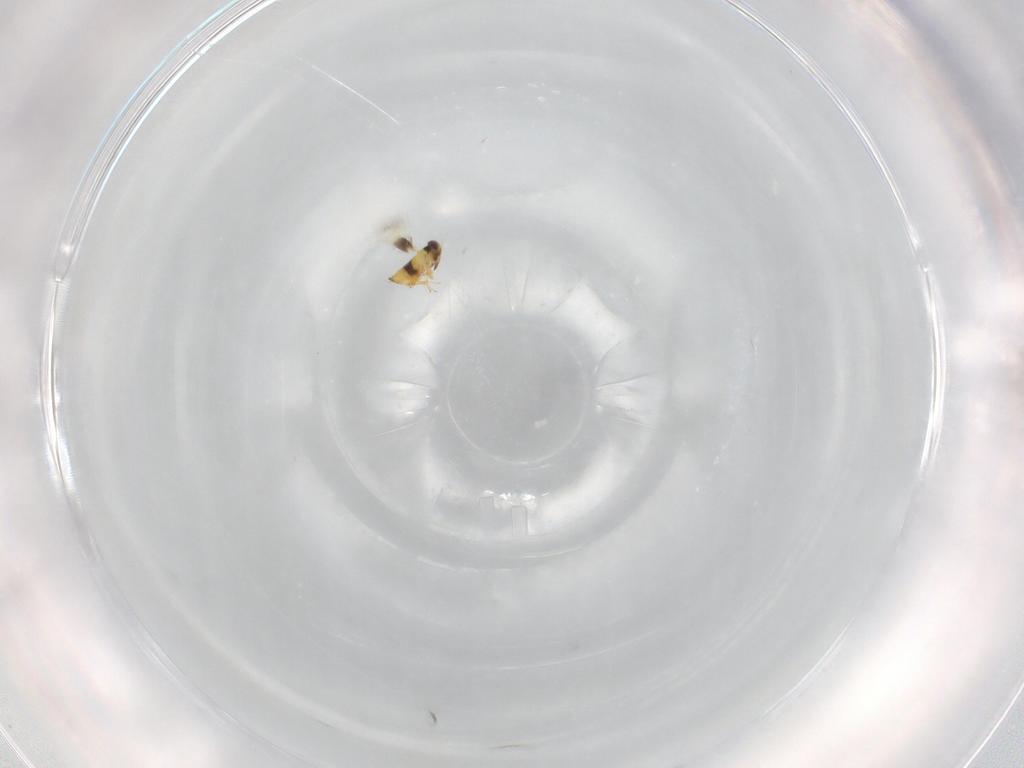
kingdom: Animalia
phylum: Arthropoda
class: Insecta
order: Hymenoptera
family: Signiphoridae
